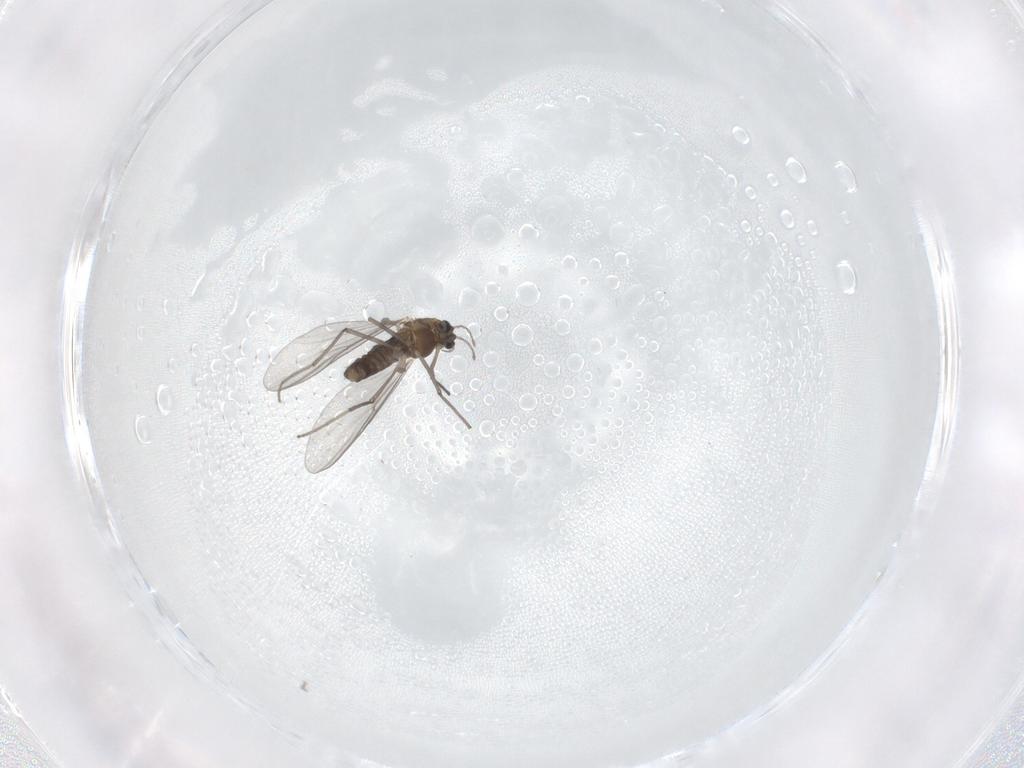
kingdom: Animalia
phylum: Arthropoda
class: Insecta
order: Diptera
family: Chironomidae
